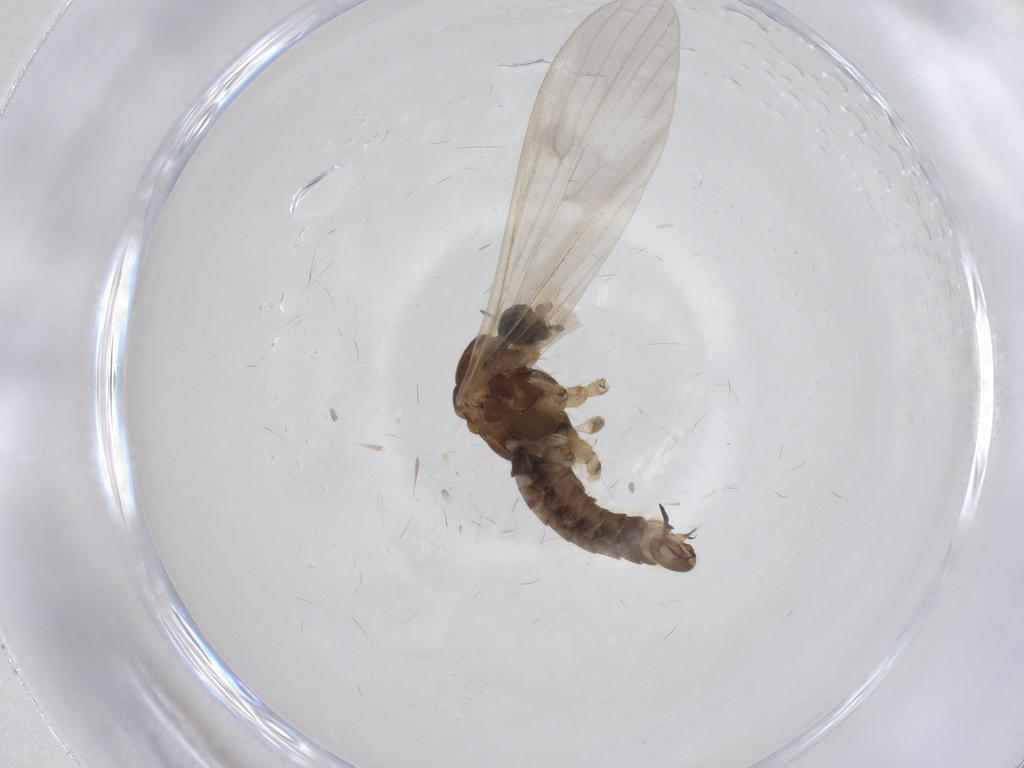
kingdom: Animalia
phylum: Arthropoda
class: Insecta
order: Diptera
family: Limoniidae
